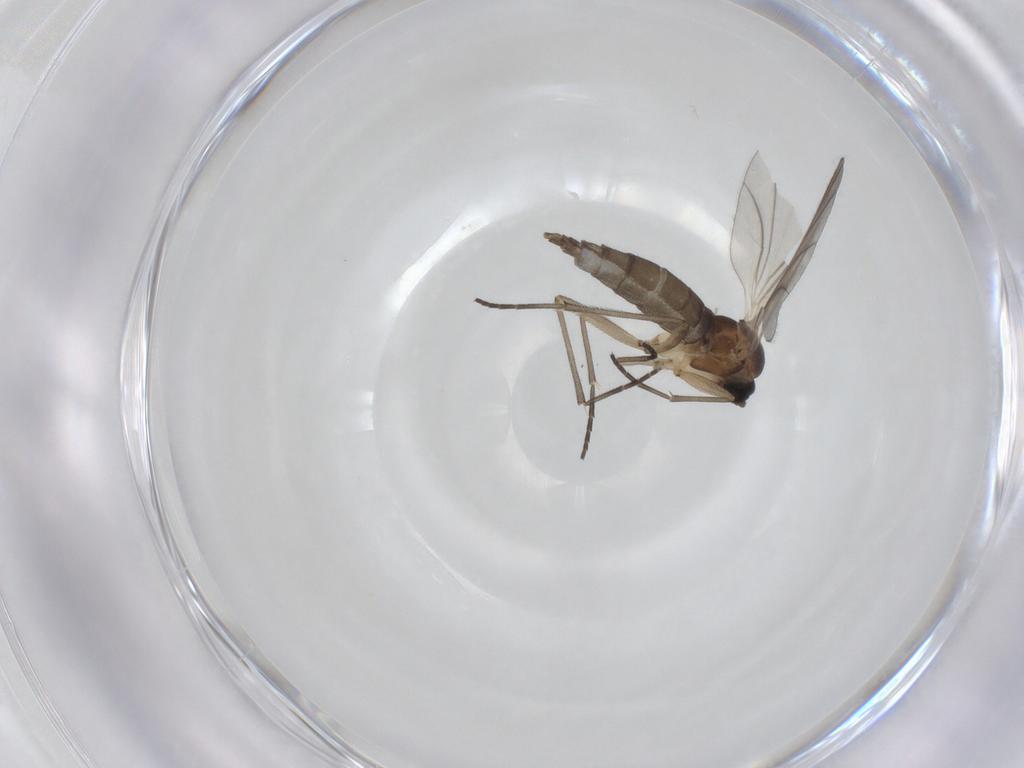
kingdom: Animalia
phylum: Arthropoda
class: Insecta
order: Diptera
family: Sciaridae
